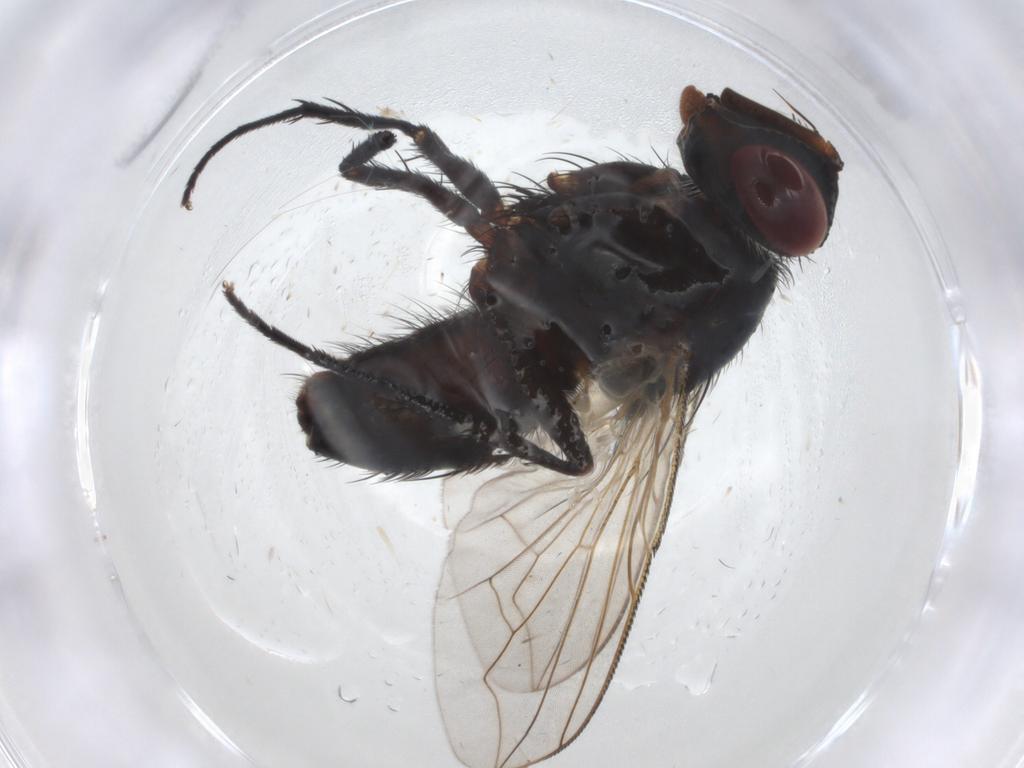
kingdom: Animalia
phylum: Arthropoda
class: Insecta
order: Diptera
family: Tachinidae
